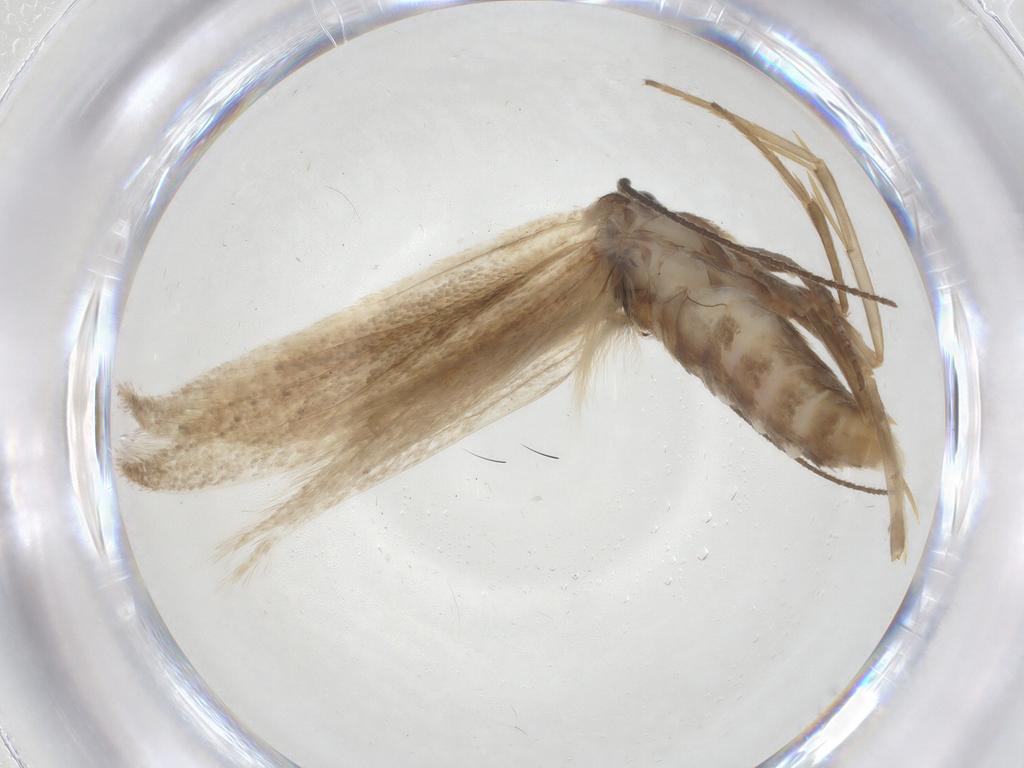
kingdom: Animalia
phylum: Arthropoda
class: Insecta
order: Lepidoptera
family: Elachistidae
